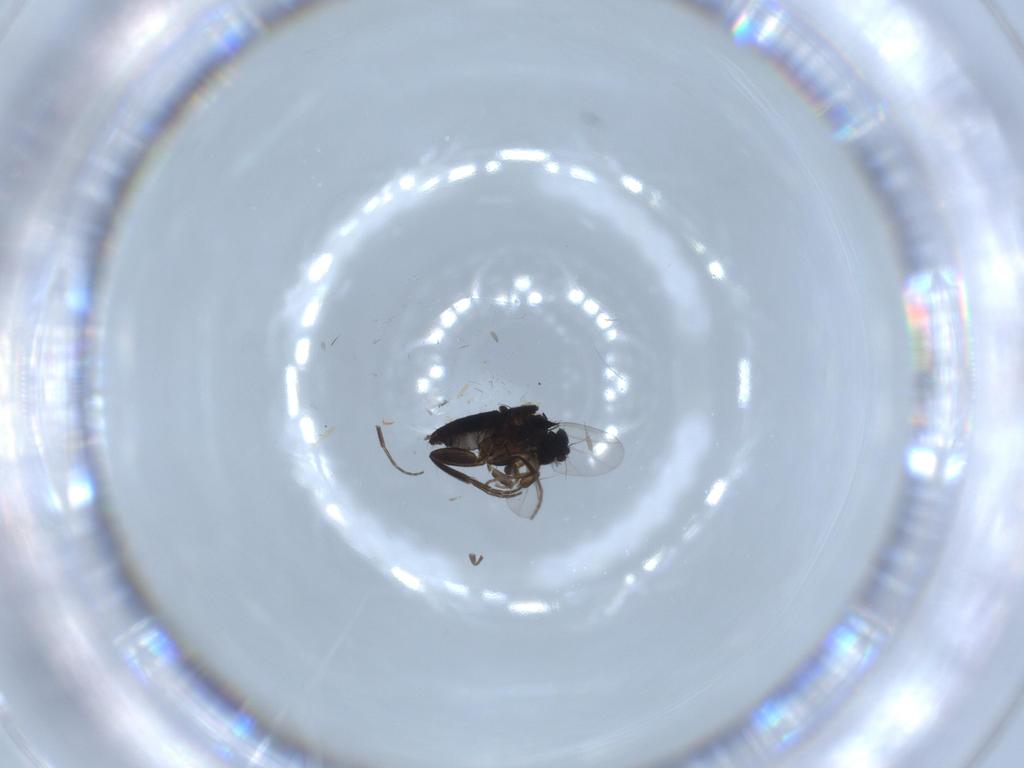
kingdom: Animalia
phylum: Arthropoda
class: Insecta
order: Diptera
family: Phoridae
